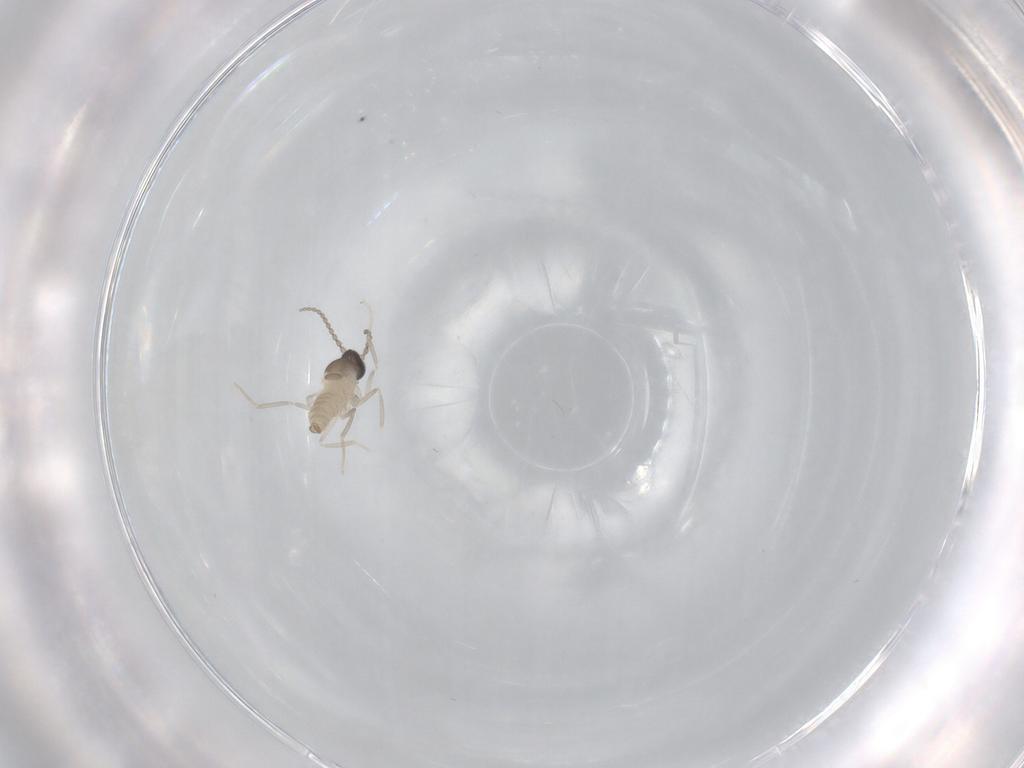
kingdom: Animalia
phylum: Arthropoda
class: Insecta
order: Diptera
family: Cecidomyiidae
